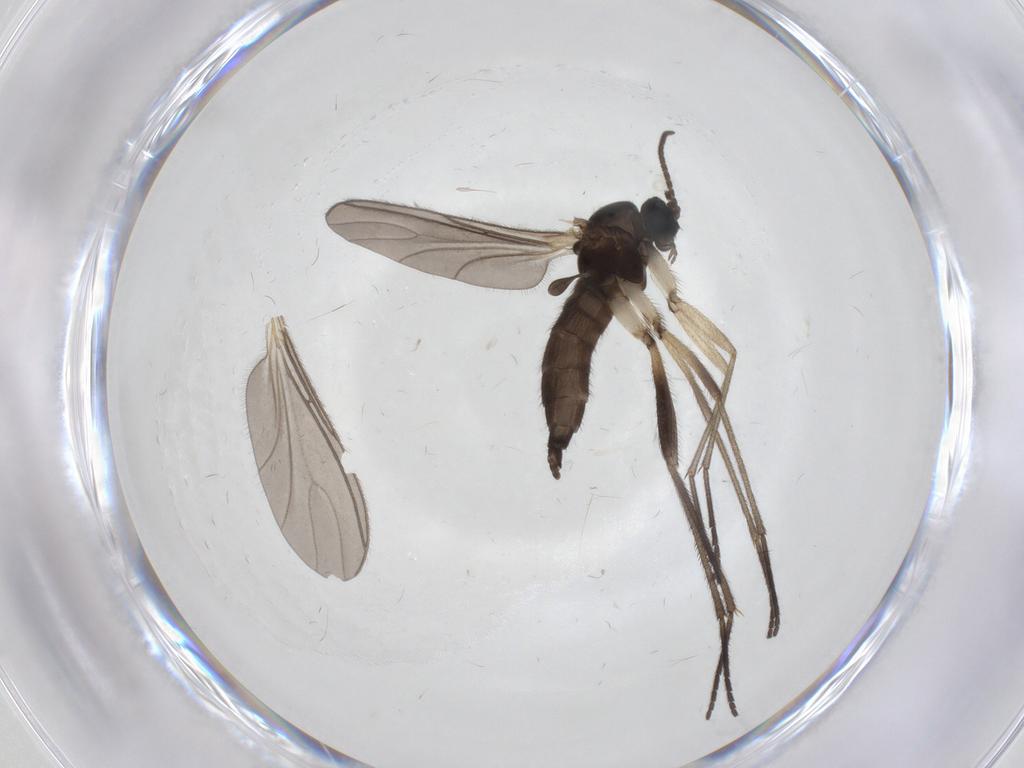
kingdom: Animalia
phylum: Arthropoda
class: Insecta
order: Diptera
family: Sciaridae
